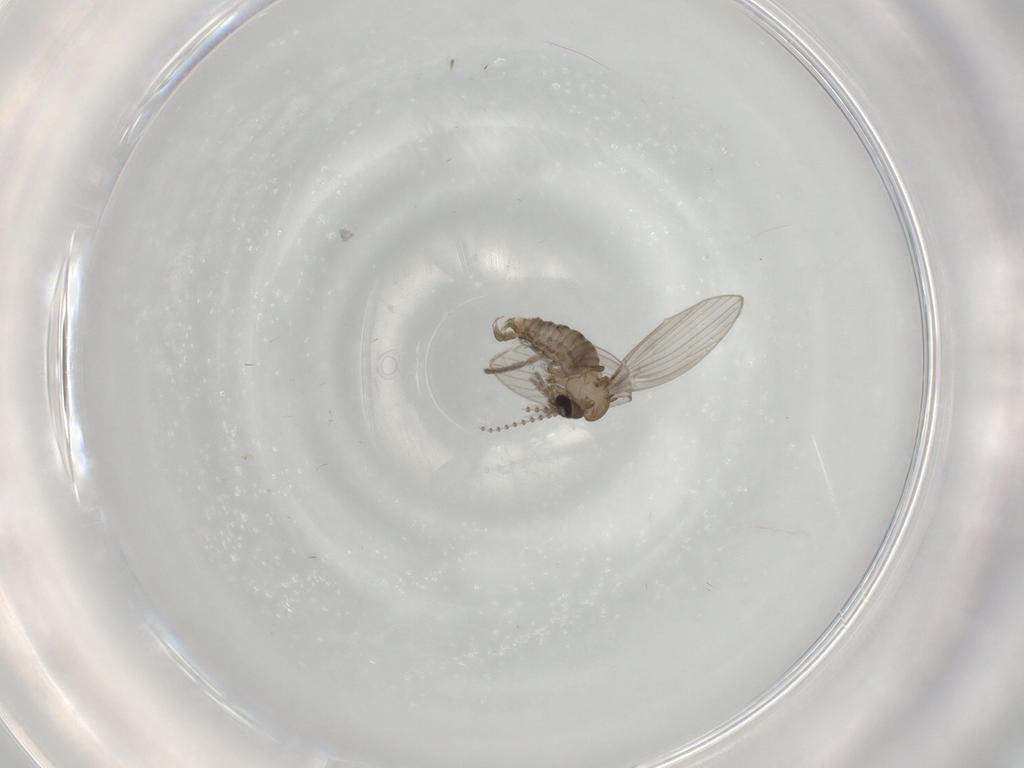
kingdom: Animalia
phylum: Arthropoda
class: Insecta
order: Diptera
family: Psychodidae
